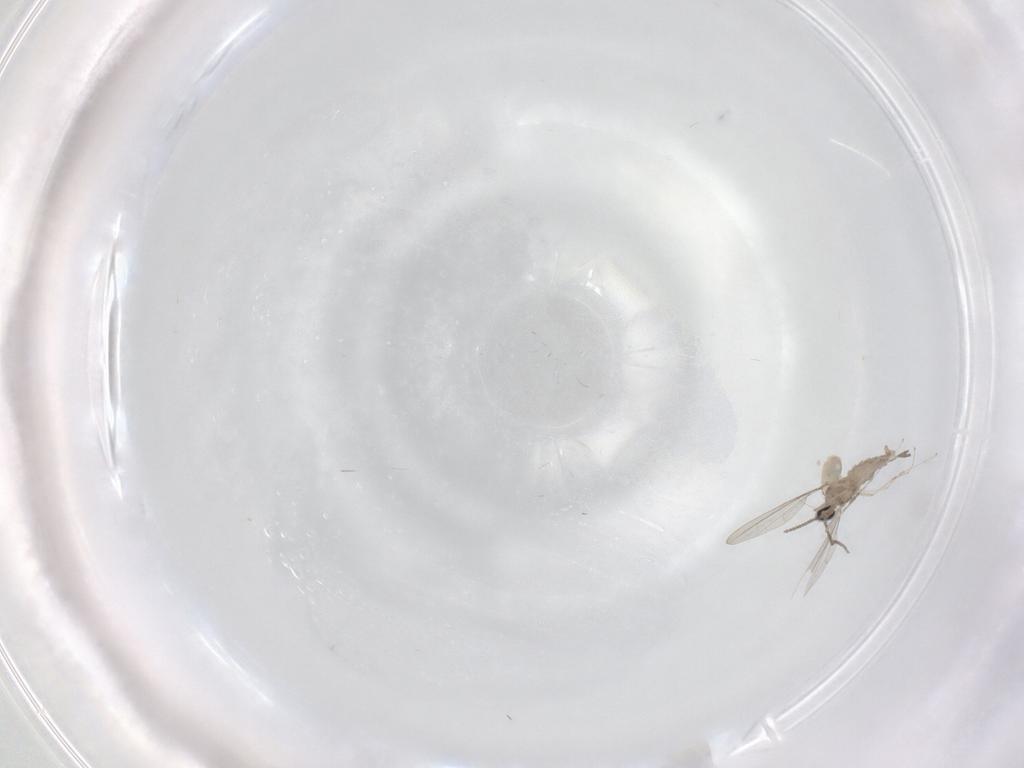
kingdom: Animalia
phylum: Arthropoda
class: Insecta
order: Diptera
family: Cecidomyiidae
